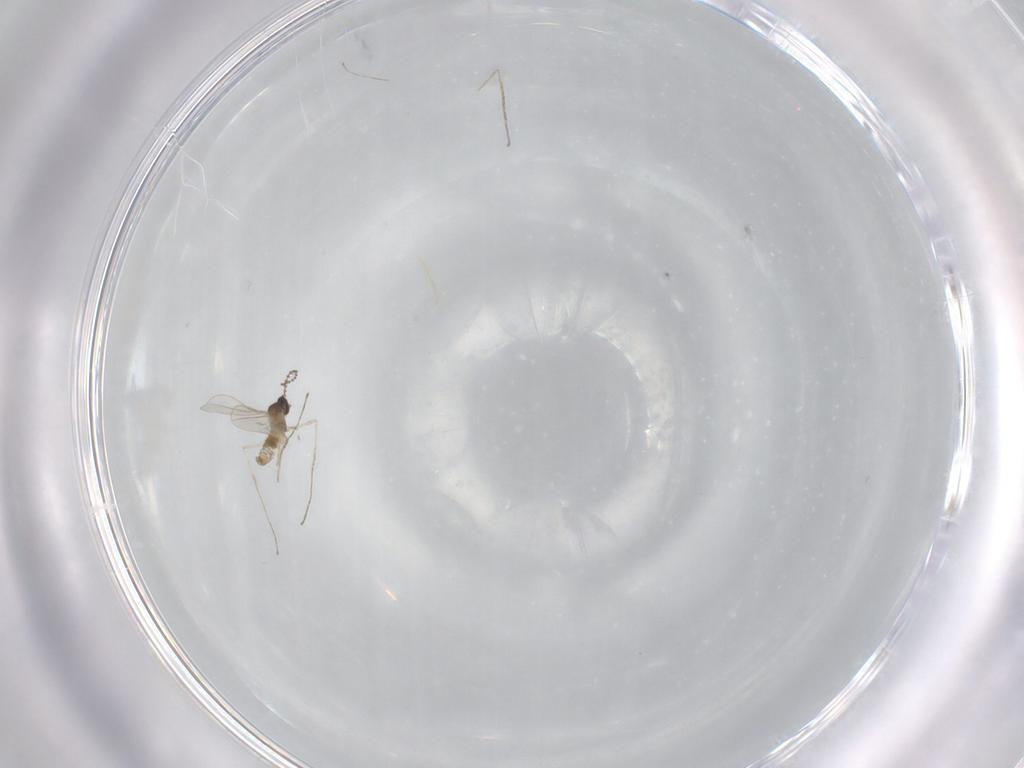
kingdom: Animalia
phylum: Arthropoda
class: Insecta
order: Diptera
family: Cecidomyiidae
